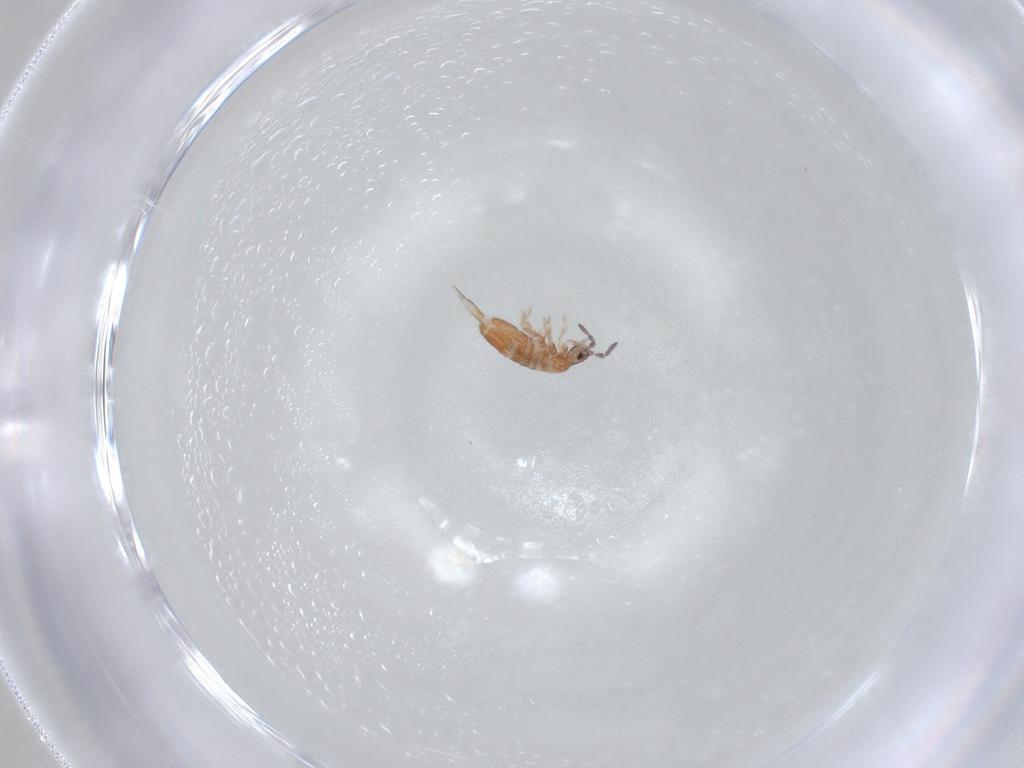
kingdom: Animalia
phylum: Arthropoda
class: Collembola
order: Entomobryomorpha
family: Entomobryidae
